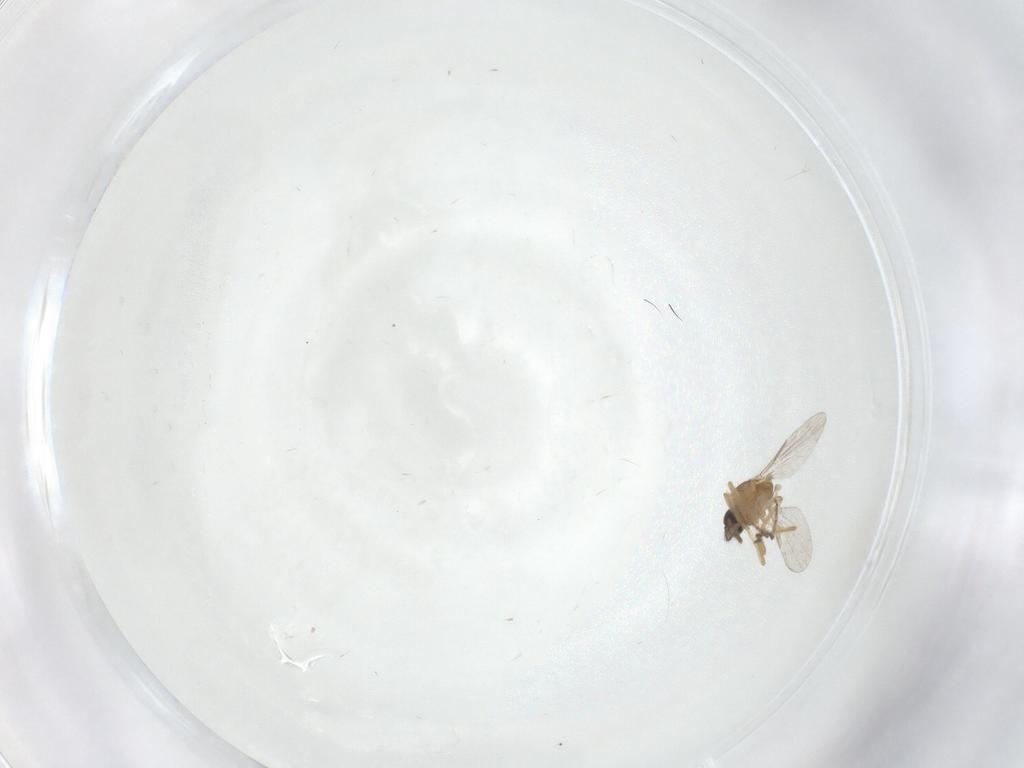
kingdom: Animalia
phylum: Arthropoda
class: Insecta
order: Diptera
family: Ceratopogonidae
